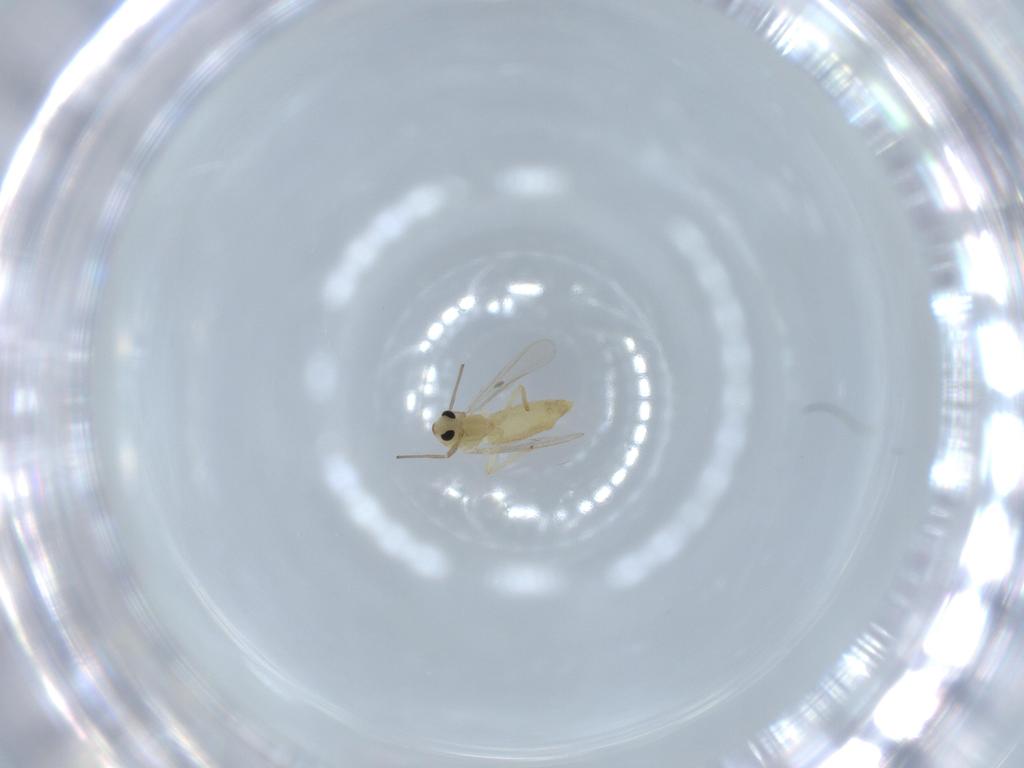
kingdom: Animalia
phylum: Arthropoda
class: Insecta
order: Diptera
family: Chironomidae
